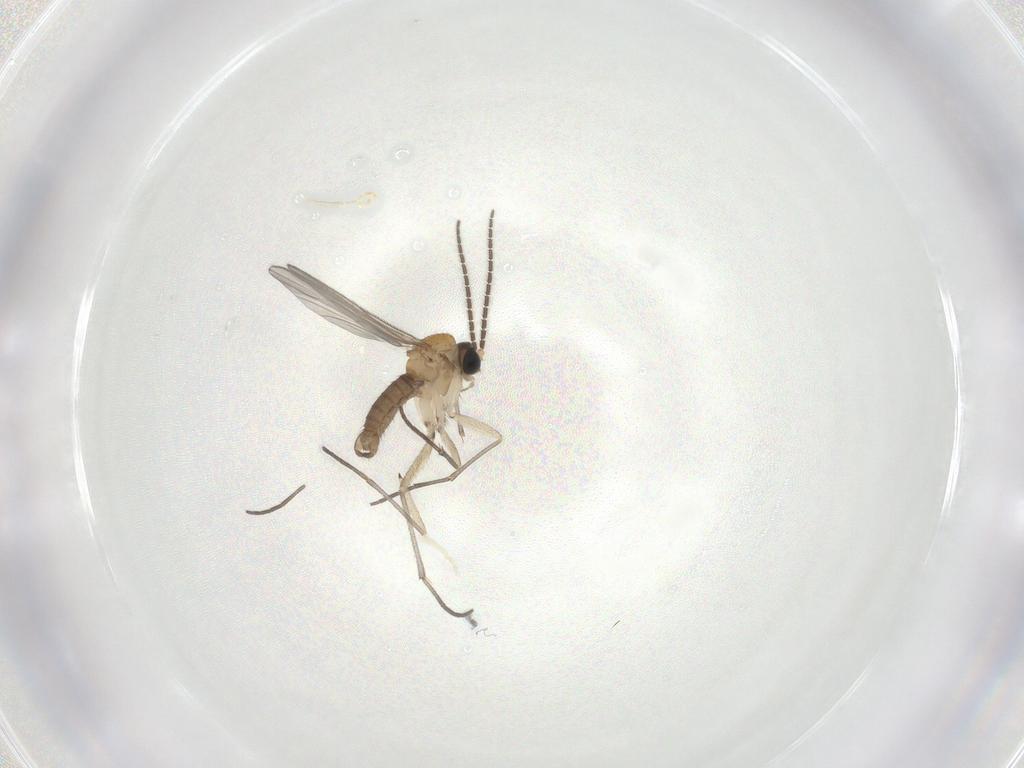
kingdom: Animalia
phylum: Arthropoda
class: Insecta
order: Diptera
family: Sciaridae
